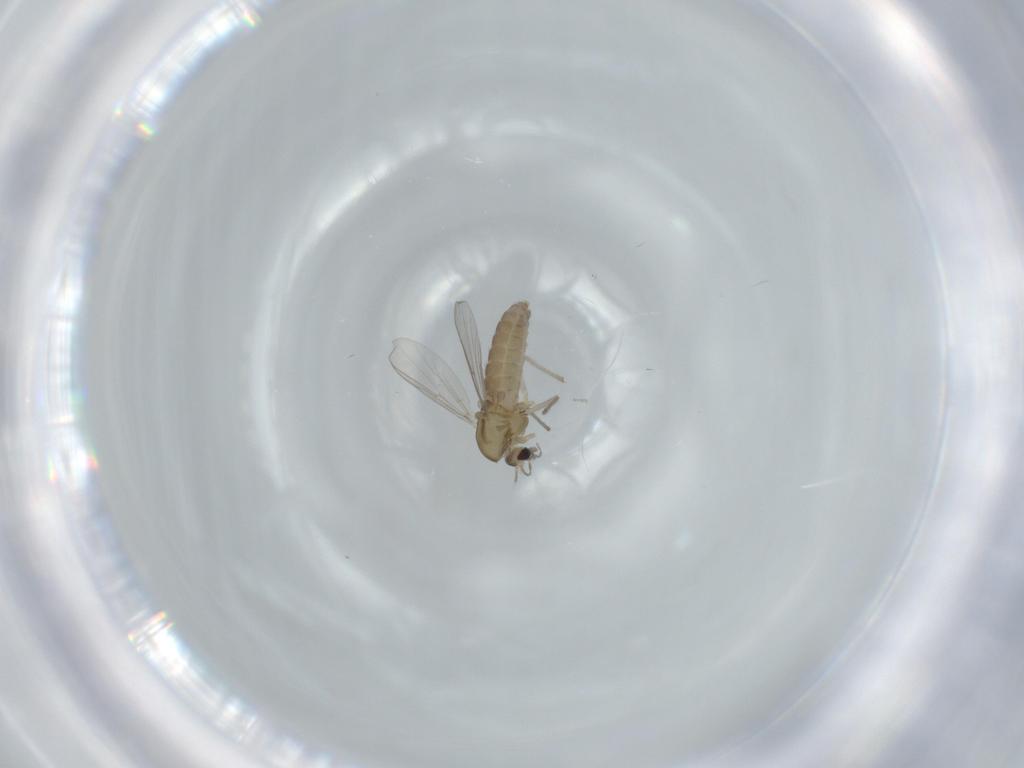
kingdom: Animalia
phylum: Arthropoda
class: Insecta
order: Diptera
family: Chironomidae
